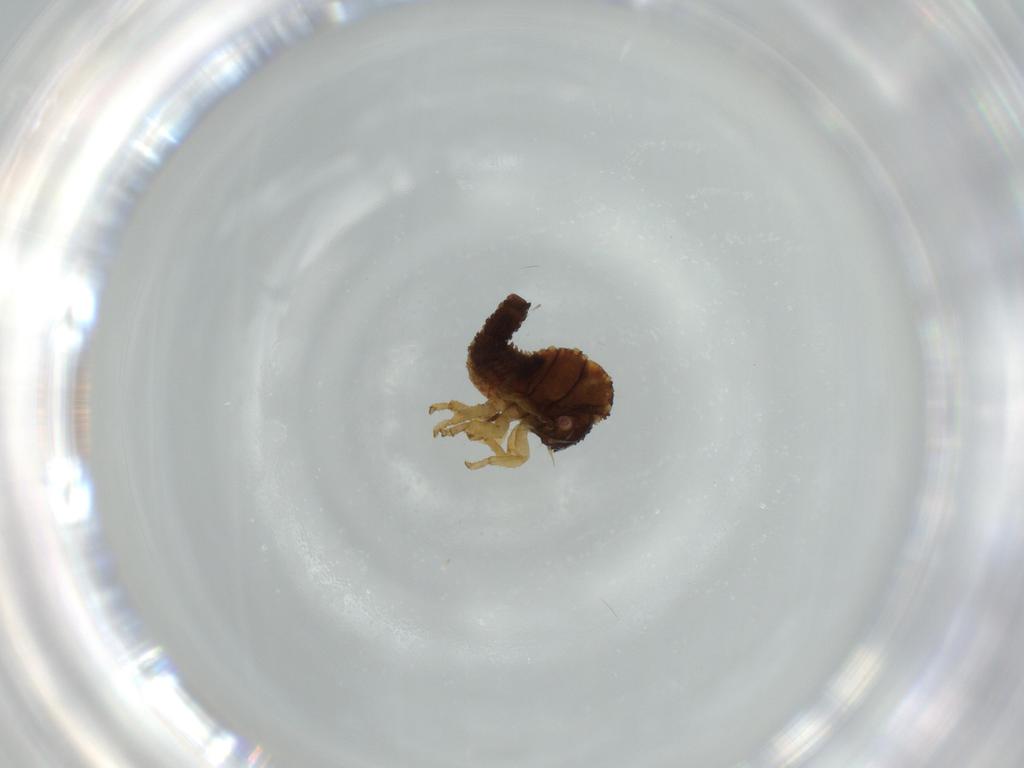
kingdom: Animalia
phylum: Arthropoda
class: Insecta
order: Hemiptera
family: Membracidae
